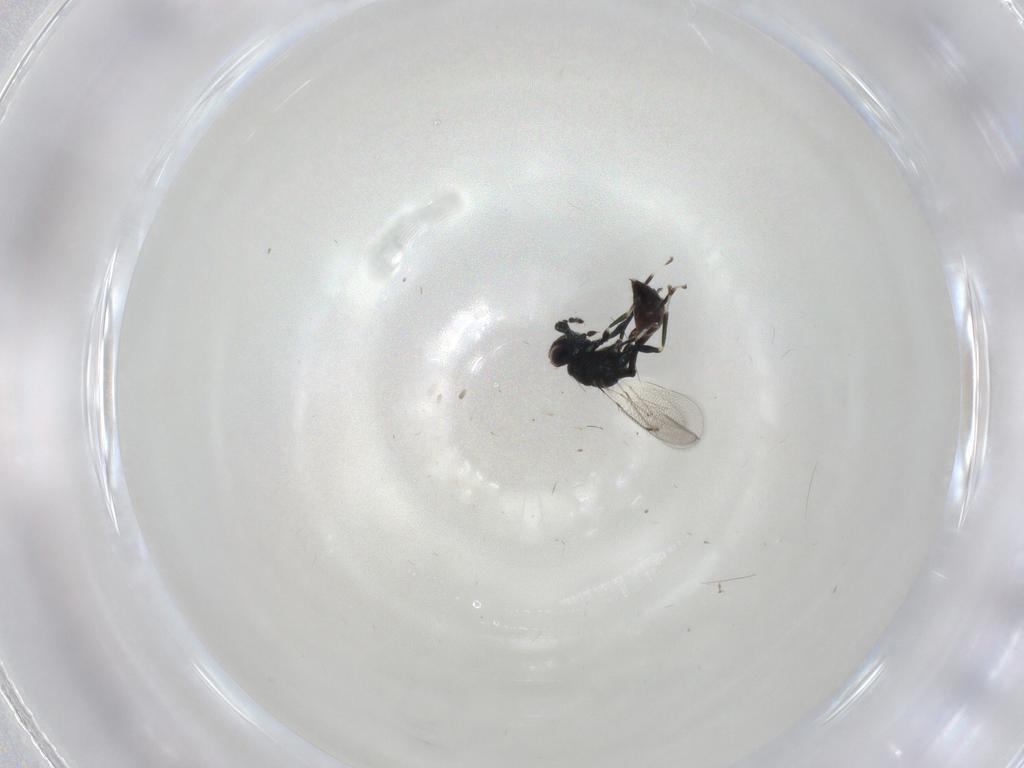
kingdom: Animalia
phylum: Arthropoda
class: Insecta
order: Hymenoptera
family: Eulophidae
